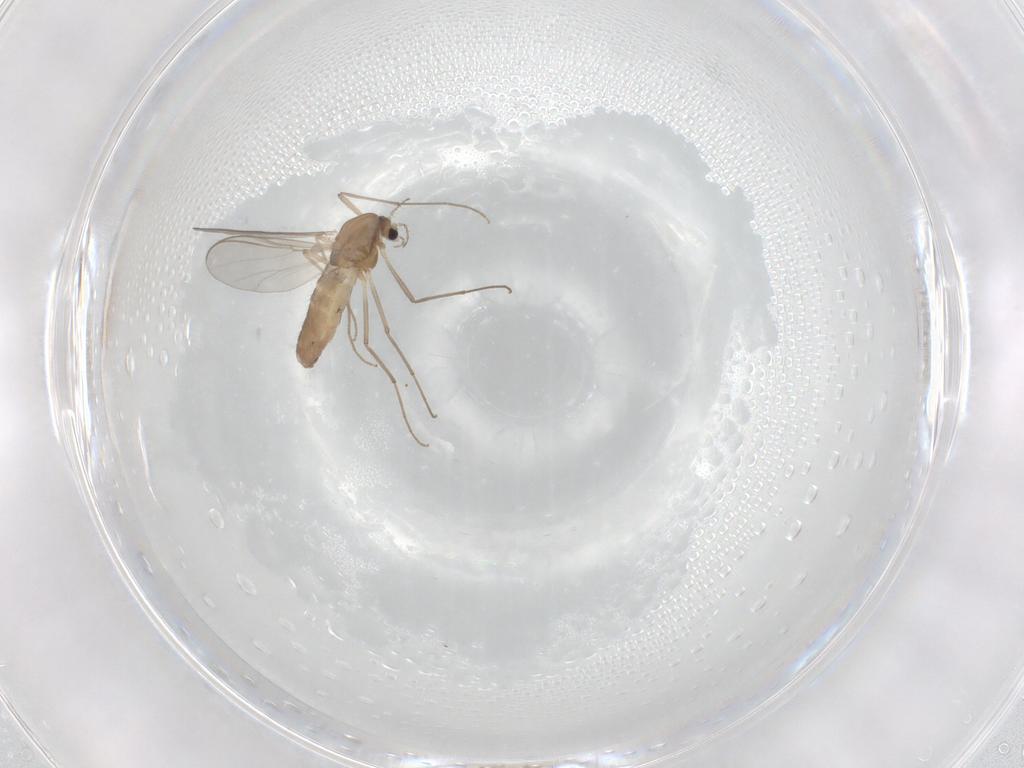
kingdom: Animalia
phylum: Arthropoda
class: Insecta
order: Diptera
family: Chironomidae
